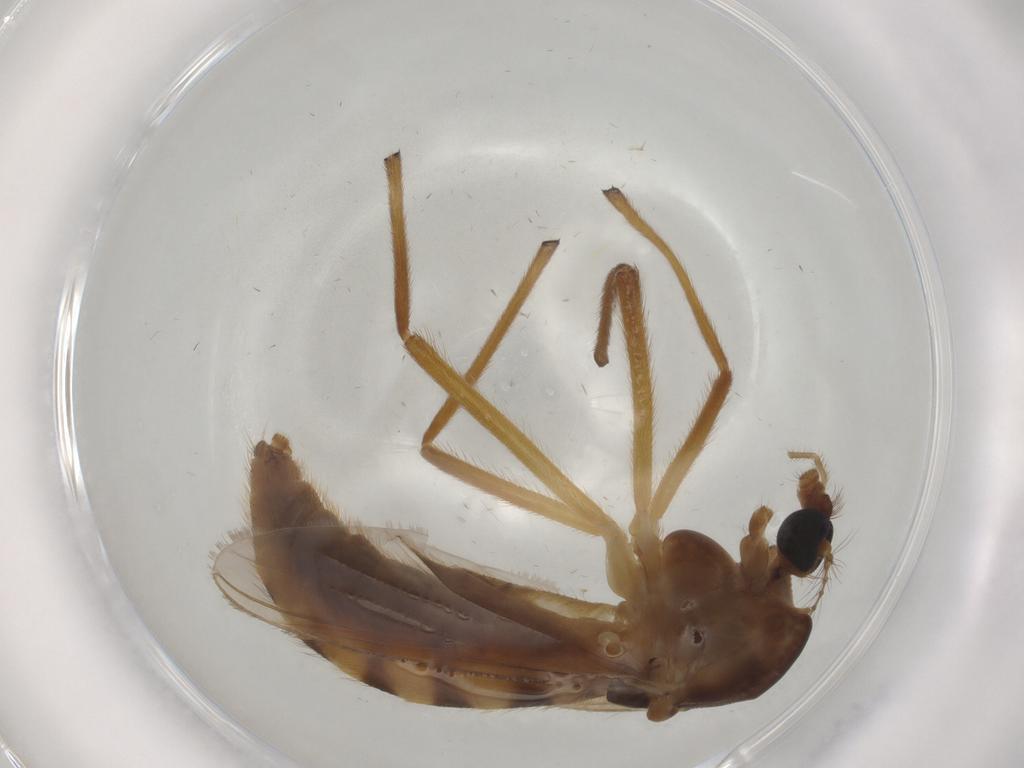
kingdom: Animalia
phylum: Arthropoda
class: Insecta
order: Diptera
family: Chironomidae
